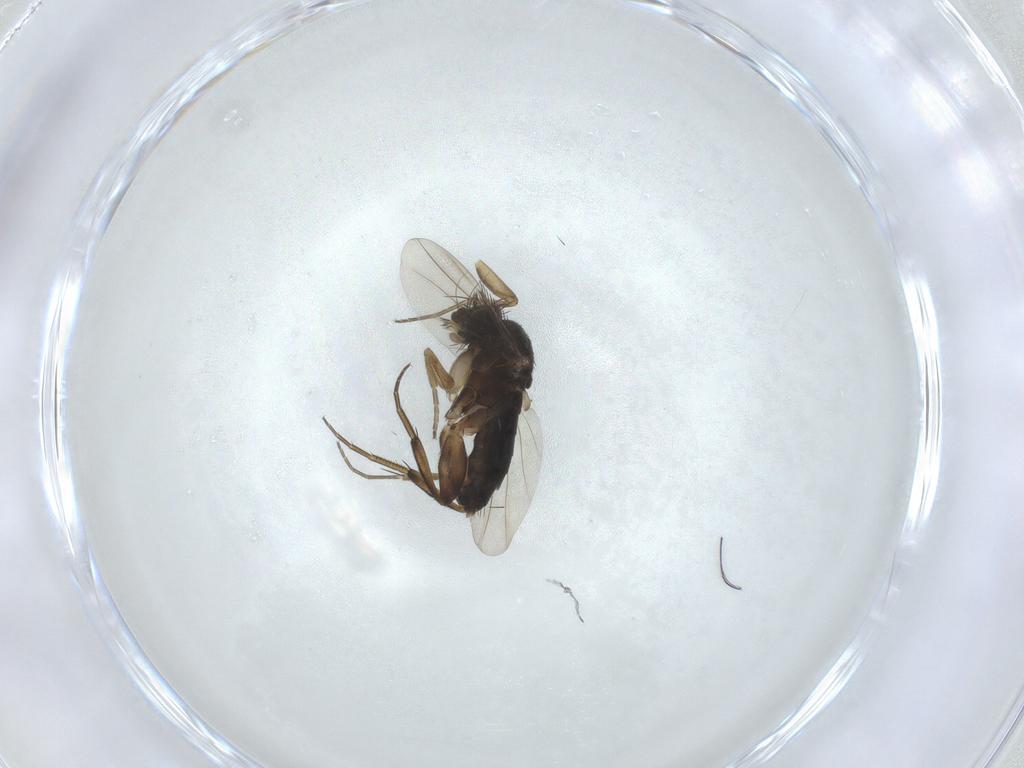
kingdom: Animalia
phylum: Arthropoda
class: Insecta
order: Diptera
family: Phoridae
